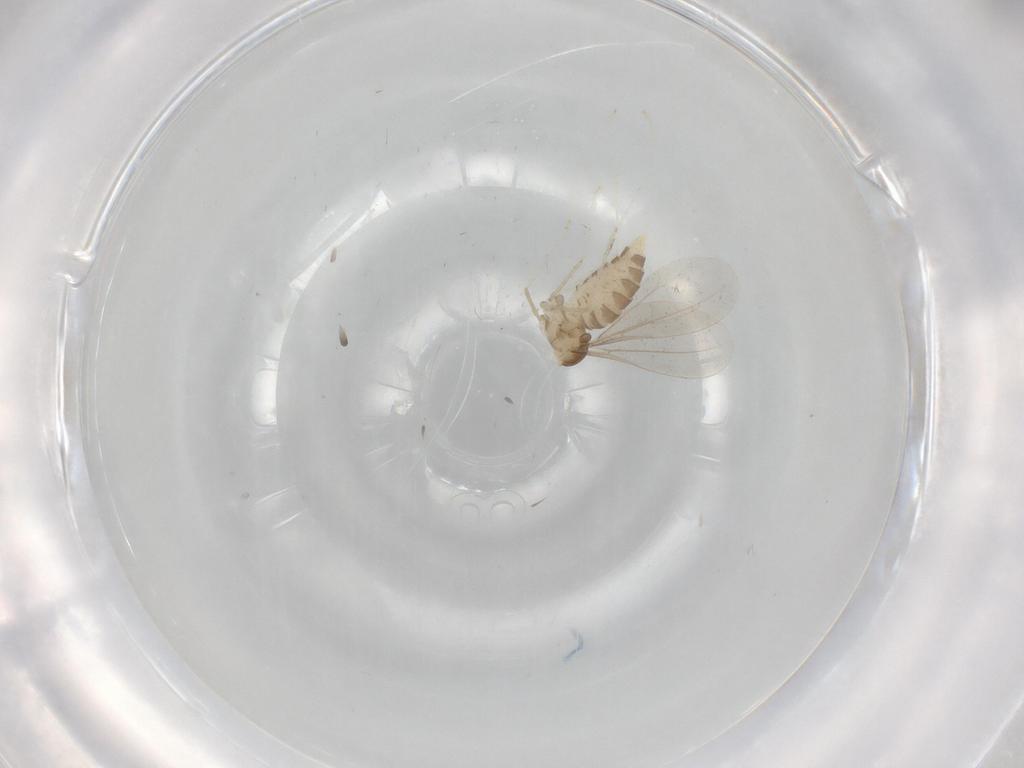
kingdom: Animalia
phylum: Arthropoda
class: Insecta
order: Diptera
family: Cecidomyiidae
